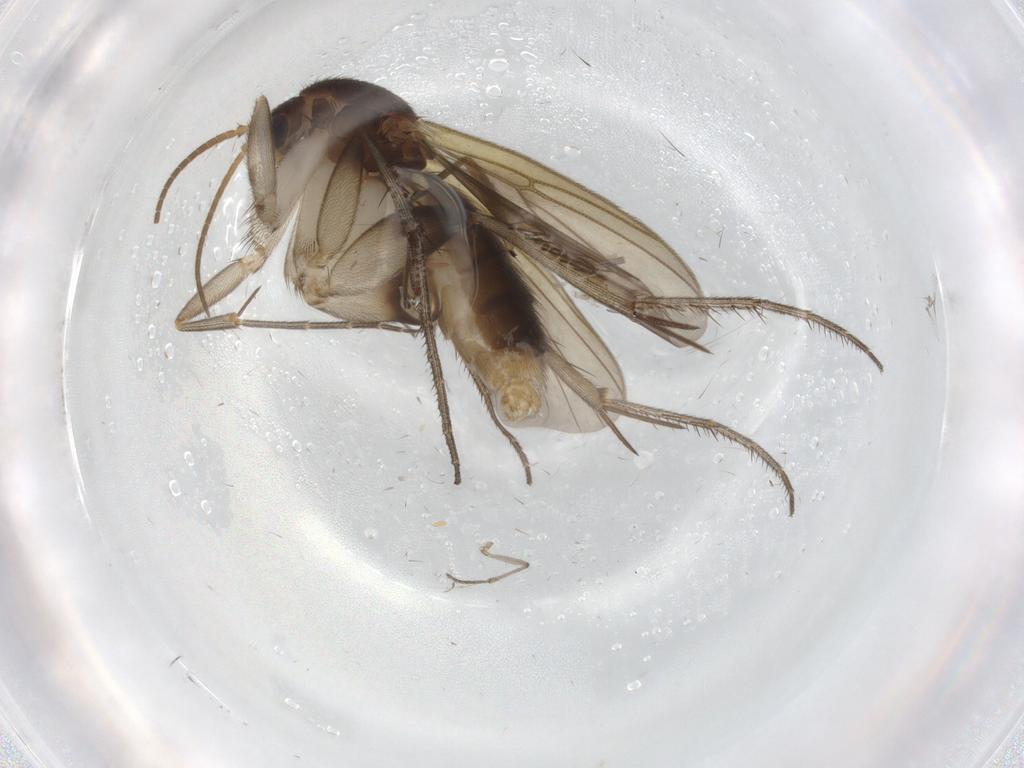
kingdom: Animalia
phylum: Arthropoda
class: Insecta
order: Diptera
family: Mycetophilidae
